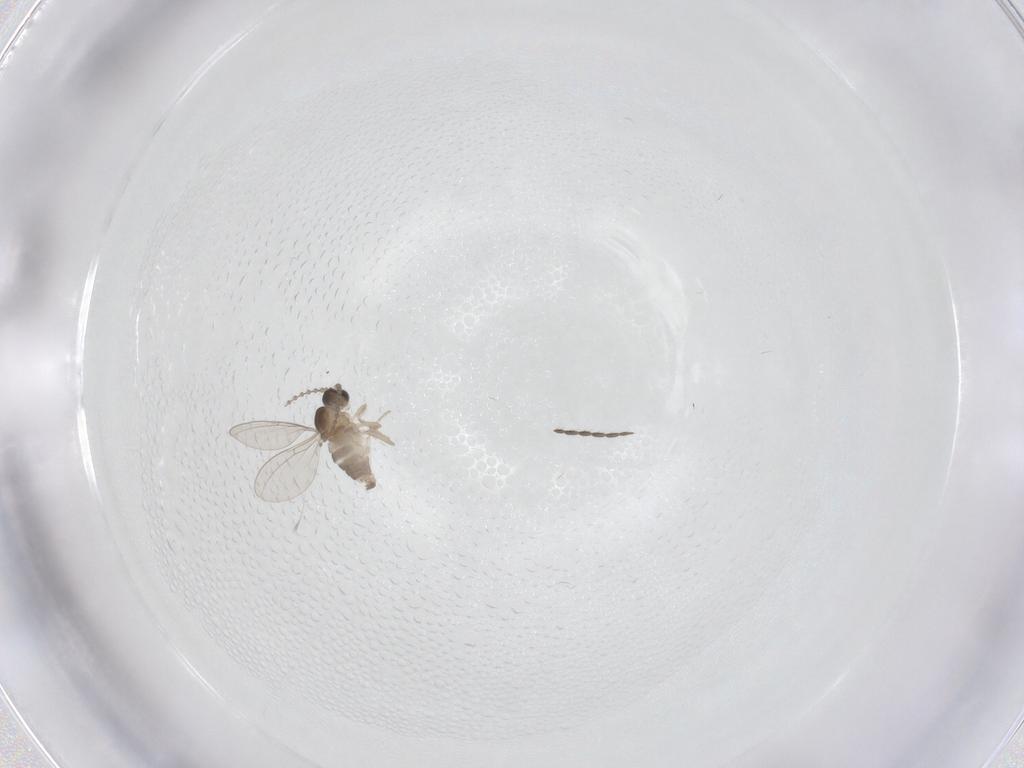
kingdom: Animalia
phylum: Arthropoda
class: Insecta
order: Diptera
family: Cecidomyiidae
